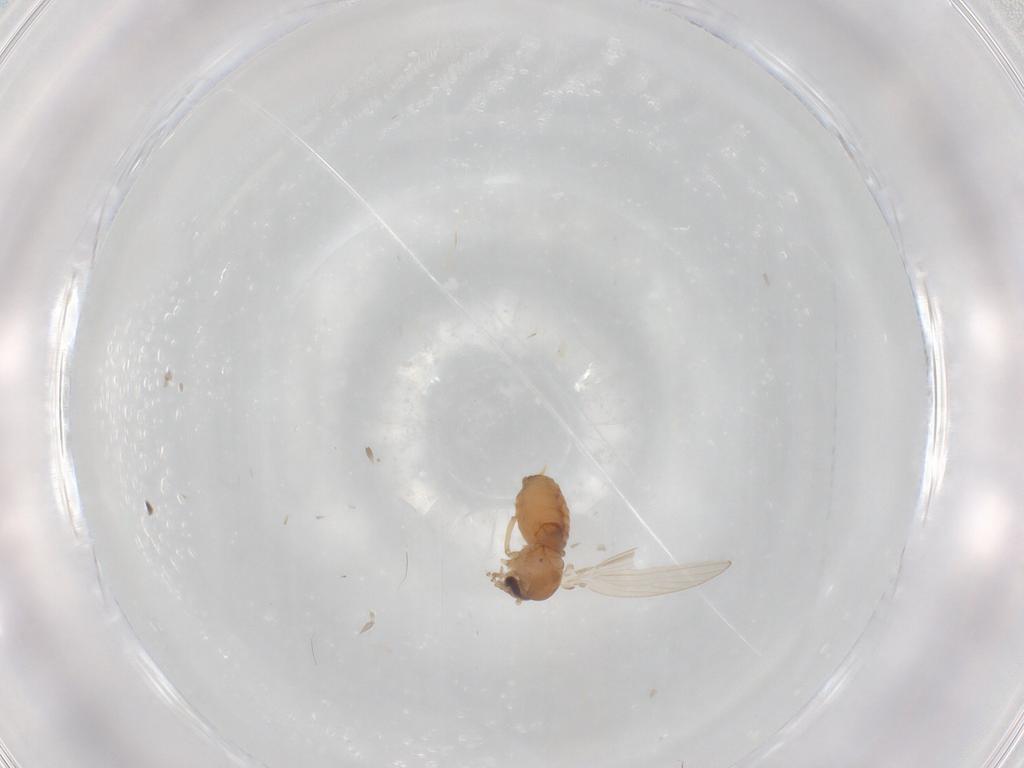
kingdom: Animalia
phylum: Arthropoda
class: Insecta
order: Diptera
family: Psychodidae
